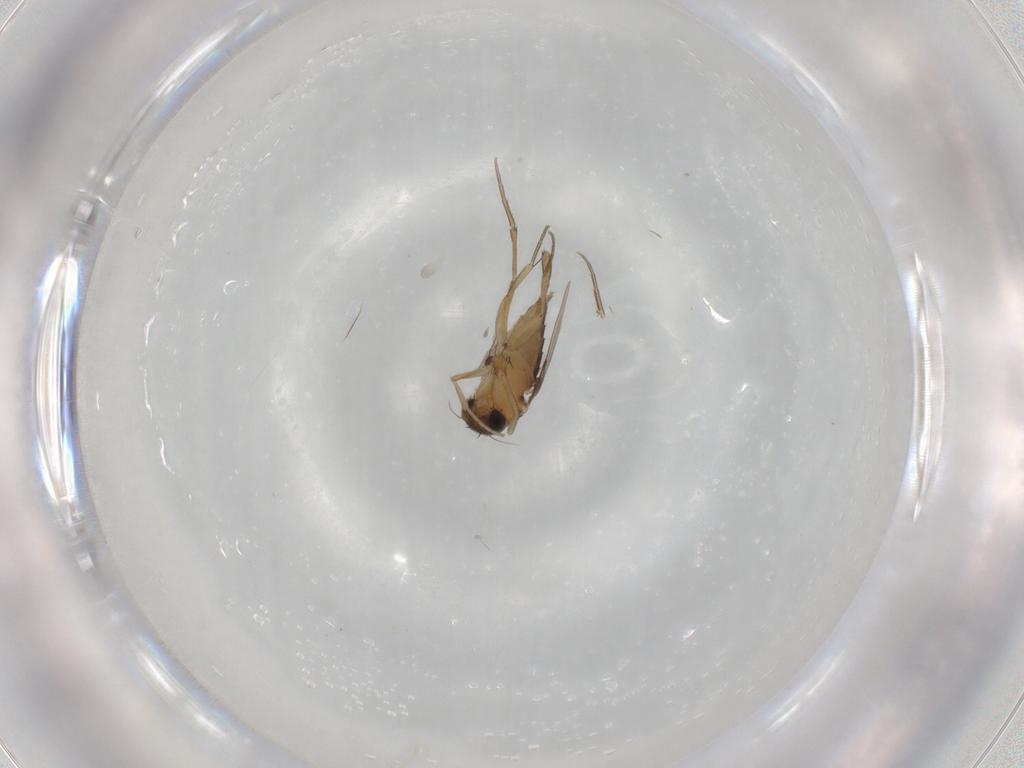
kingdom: Animalia
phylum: Arthropoda
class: Insecta
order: Diptera
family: Phoridae
